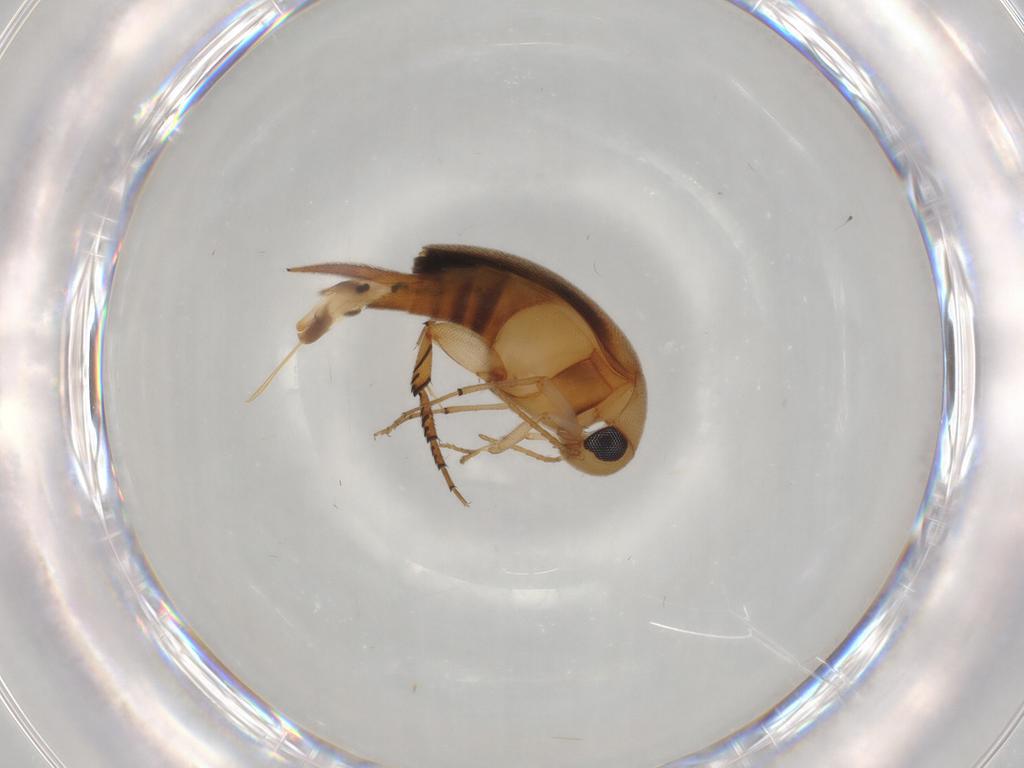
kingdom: Animalia
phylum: Arthropoda
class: Insecta
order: Coleoptera
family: Mordellidae
